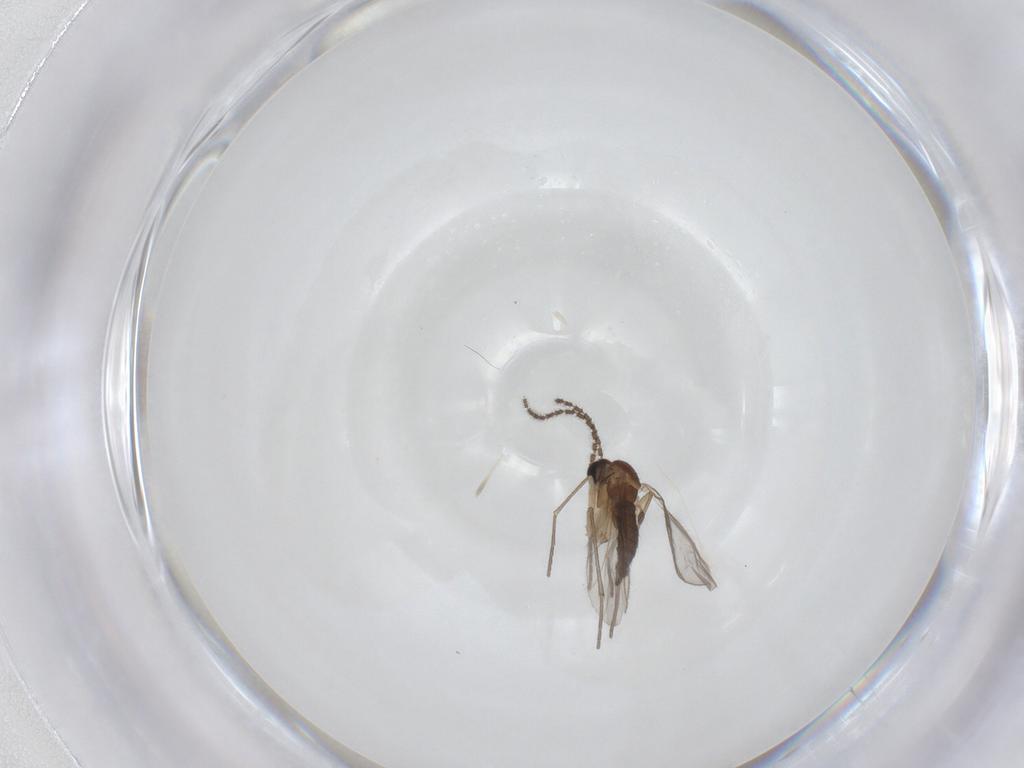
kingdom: Animalia
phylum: Arthropoda
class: Insecta
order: Diptera
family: Sciaridae
